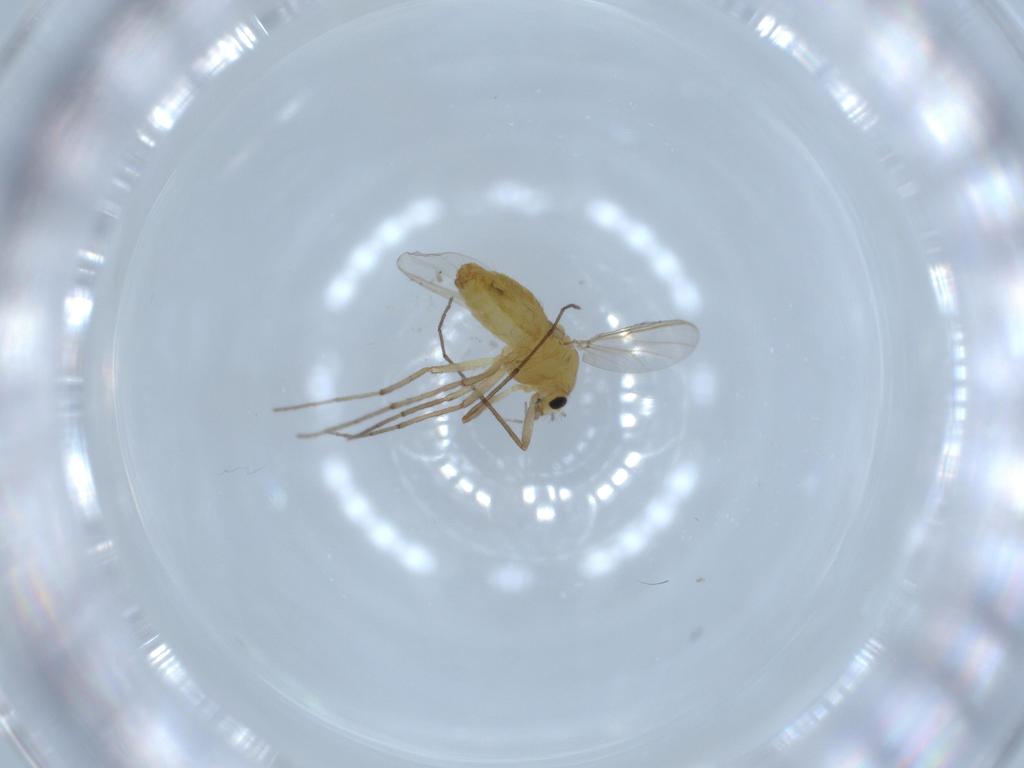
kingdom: Animalia
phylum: Arthropoda
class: Insecta
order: Diptera
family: Chironomidae
